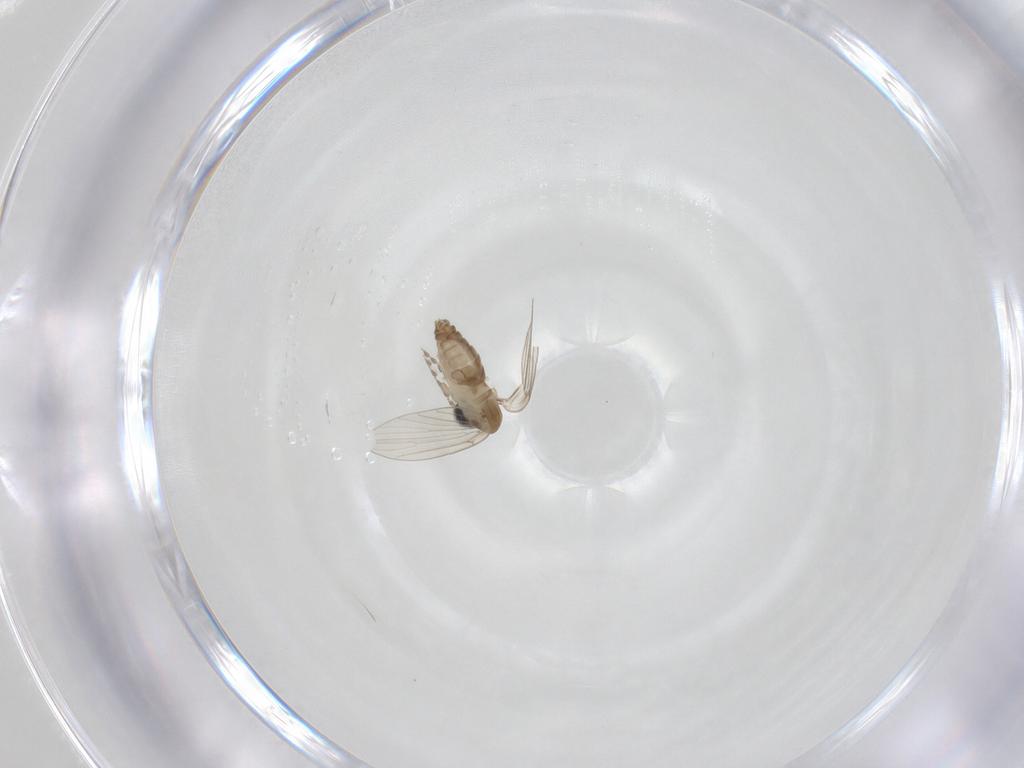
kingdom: Animalia
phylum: Arthropoda
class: Insecta
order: Diptera
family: Psychodidae
